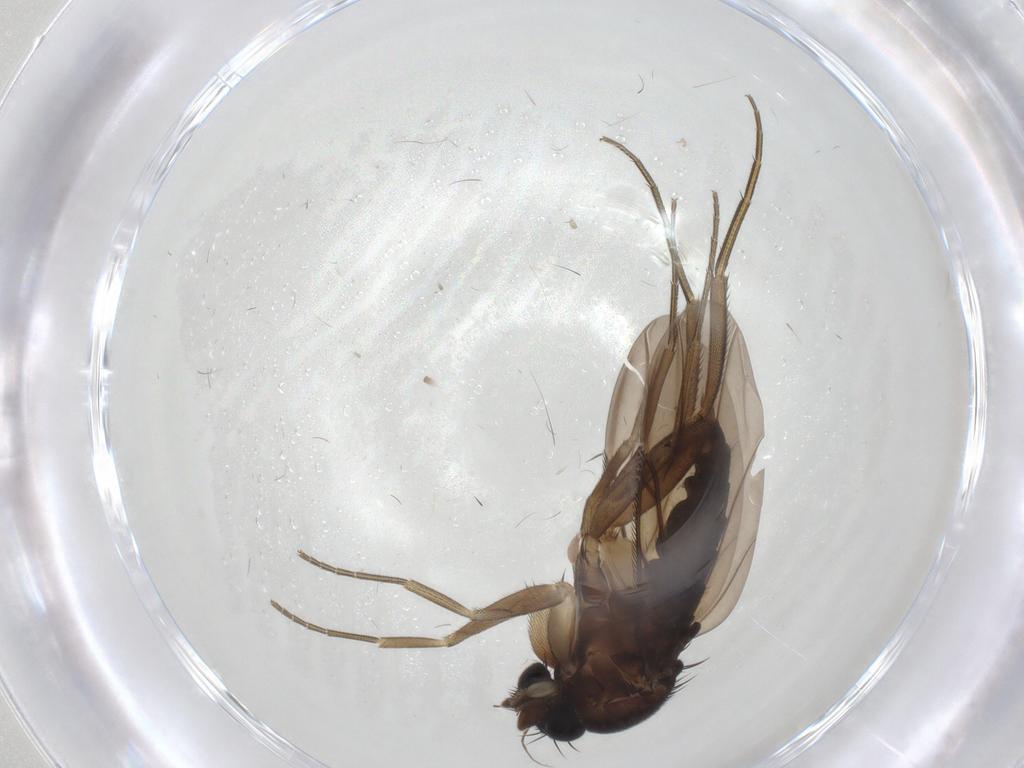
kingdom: Animalia
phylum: Arthropoda
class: Insecta
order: Diptera
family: Phoridae
